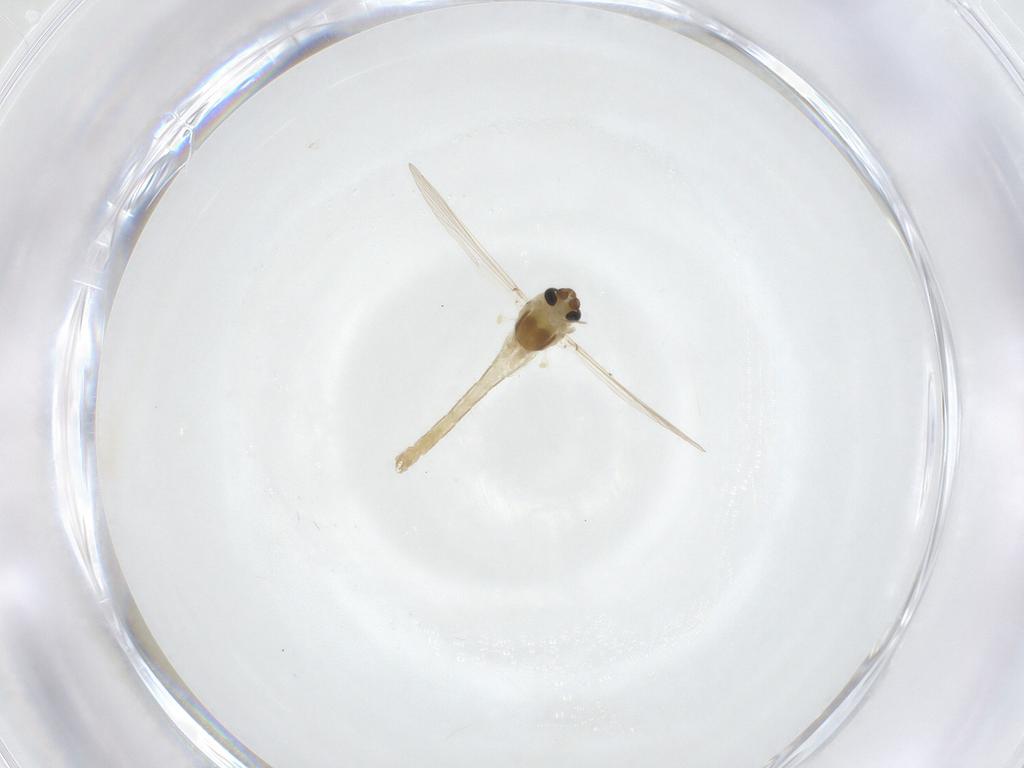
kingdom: Animalia
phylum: Arthropoda
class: Insecta
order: Diptera
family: Chironomidae
